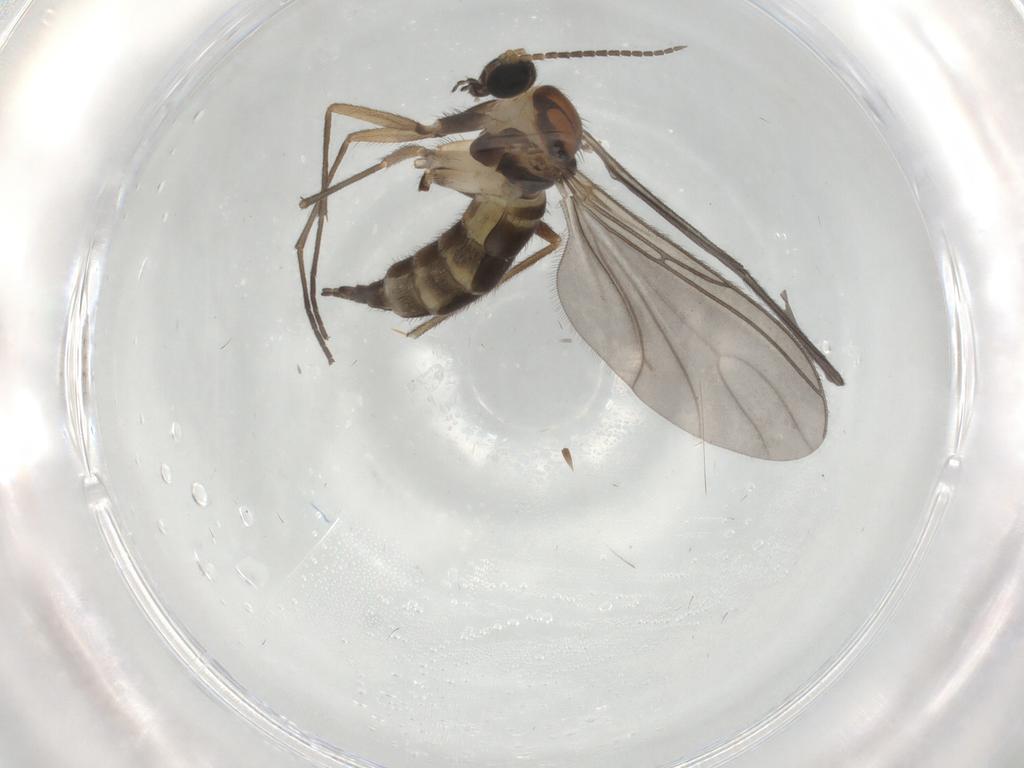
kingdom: Animalia
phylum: Arthropoda
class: Insecta
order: Diptera
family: Sciaridae
